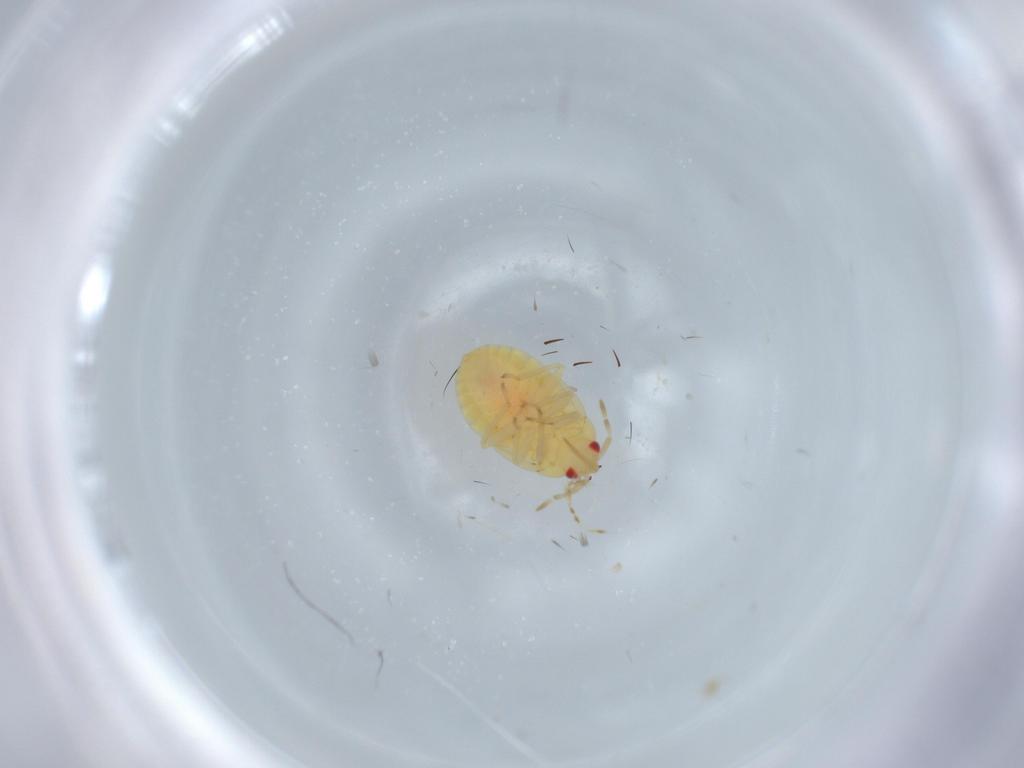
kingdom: Animalia
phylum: Arthropoda
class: Insecta
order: Hemiptera
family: Anthocoridae
